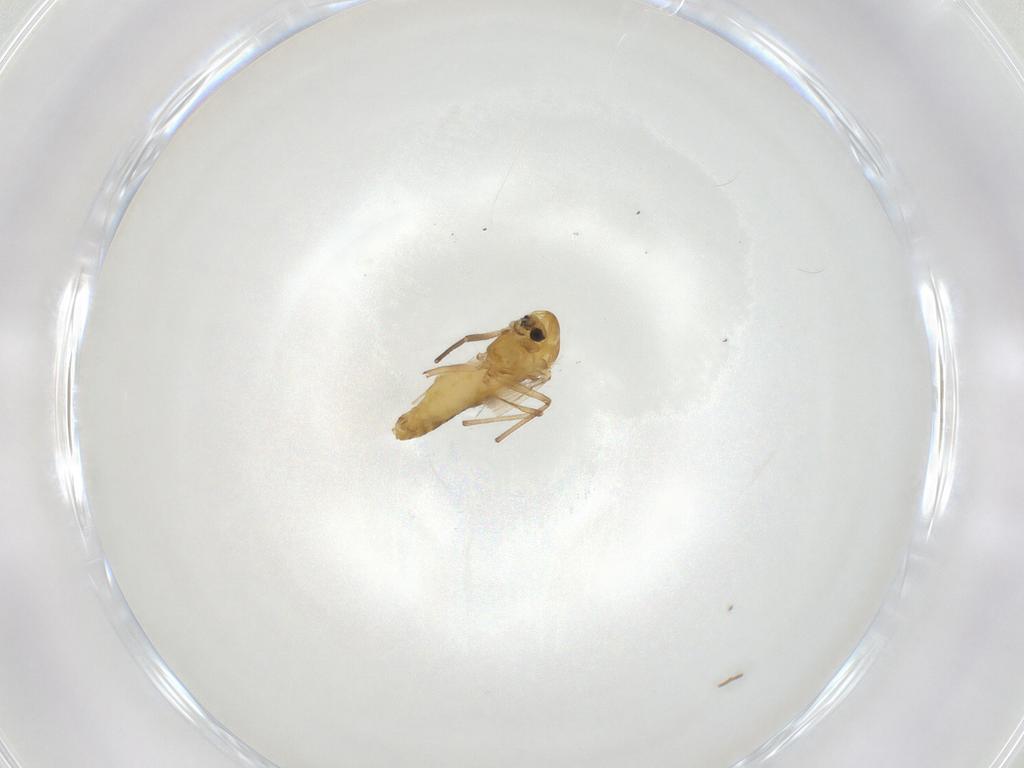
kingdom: Animalia
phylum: Arthropoda
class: Insecta
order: Diptera
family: Chironomidae
